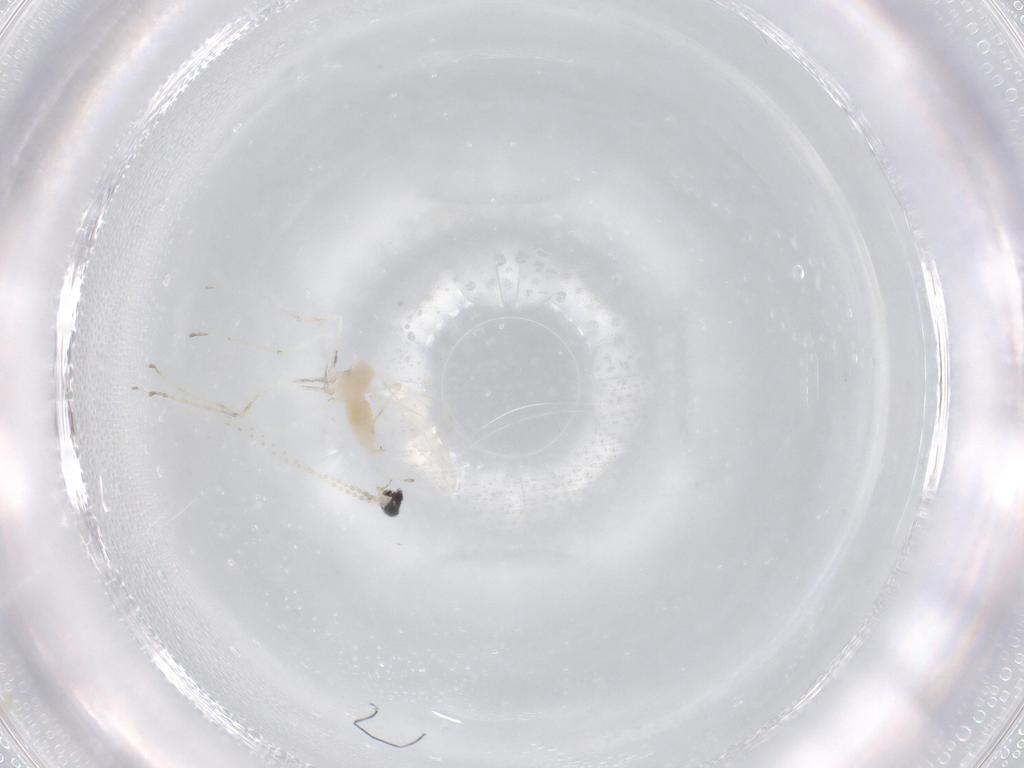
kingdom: Animalia
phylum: Arthropoda
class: Insecta
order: Diptera
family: Cecidomyiidae
